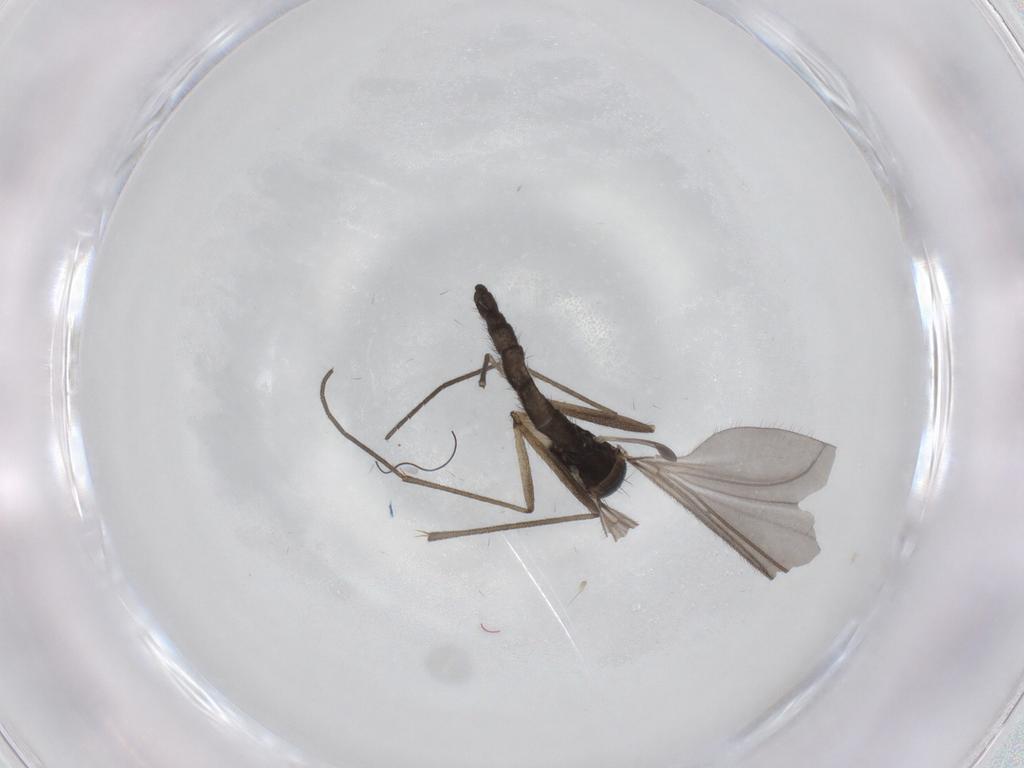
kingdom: Animalia
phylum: Arthropoda
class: Insecta
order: Diptera
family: Sciaridae
